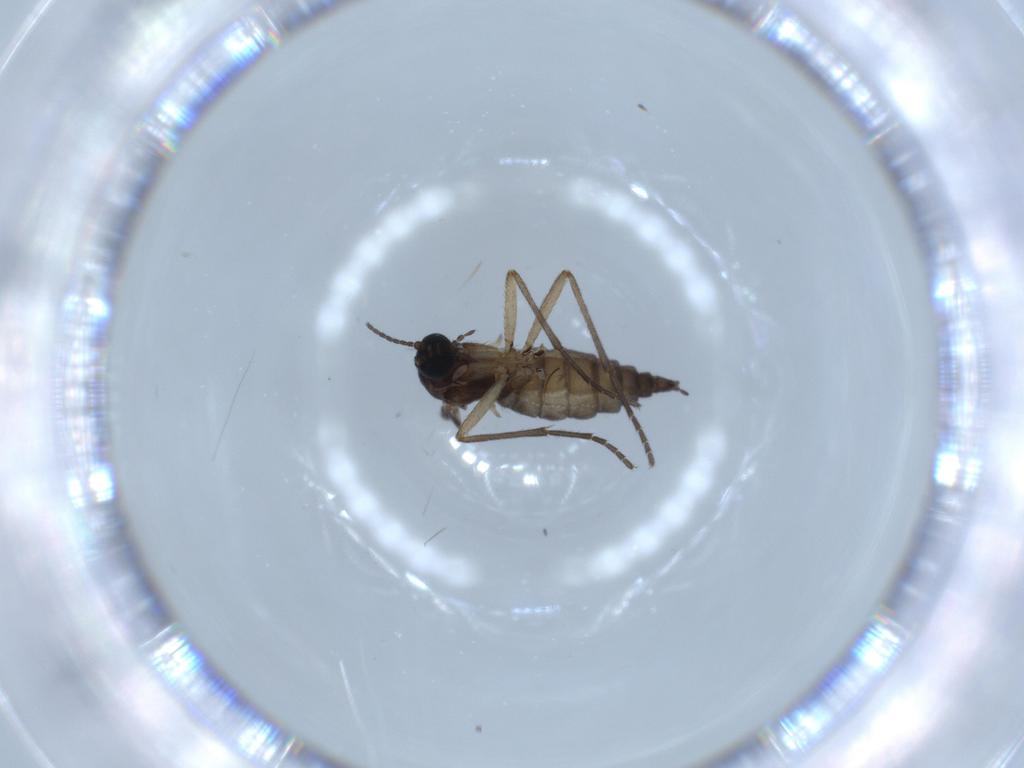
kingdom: Animalia
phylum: Arthropoda
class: Insecta
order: Diptera
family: Sciaridae
